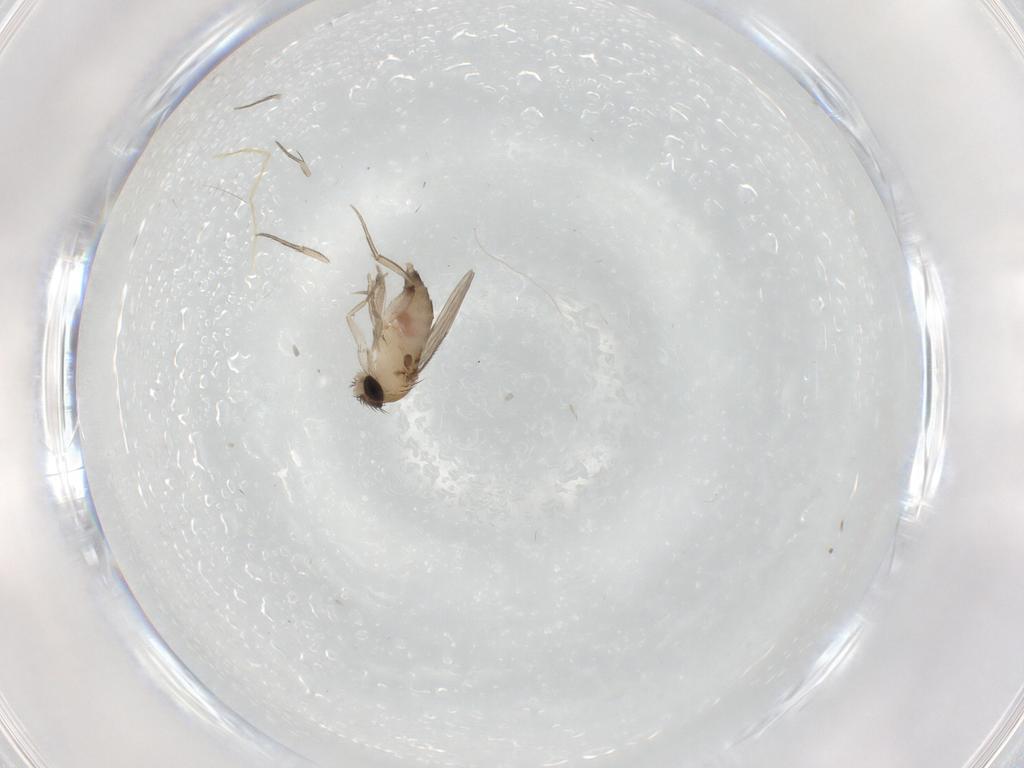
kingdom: Animalia
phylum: Arthropoda
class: Insecta
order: Diptera
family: Phoridae
